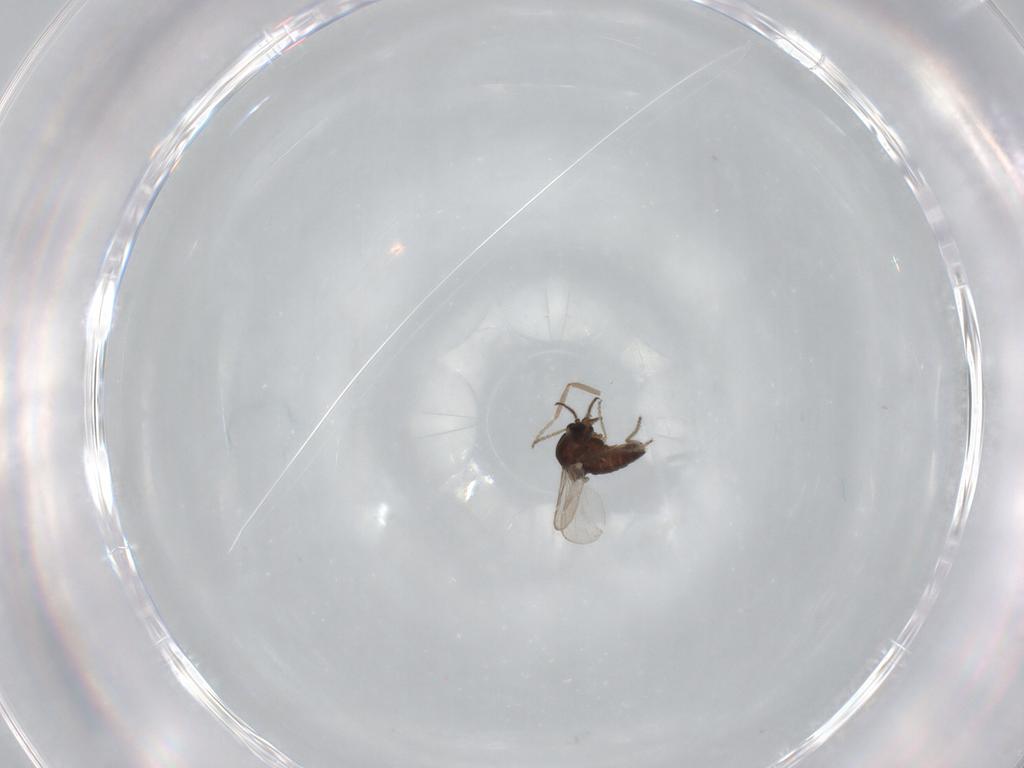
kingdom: Animalia
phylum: Arthropoda
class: Insecta
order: Diptera
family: Ceratopogonidae
